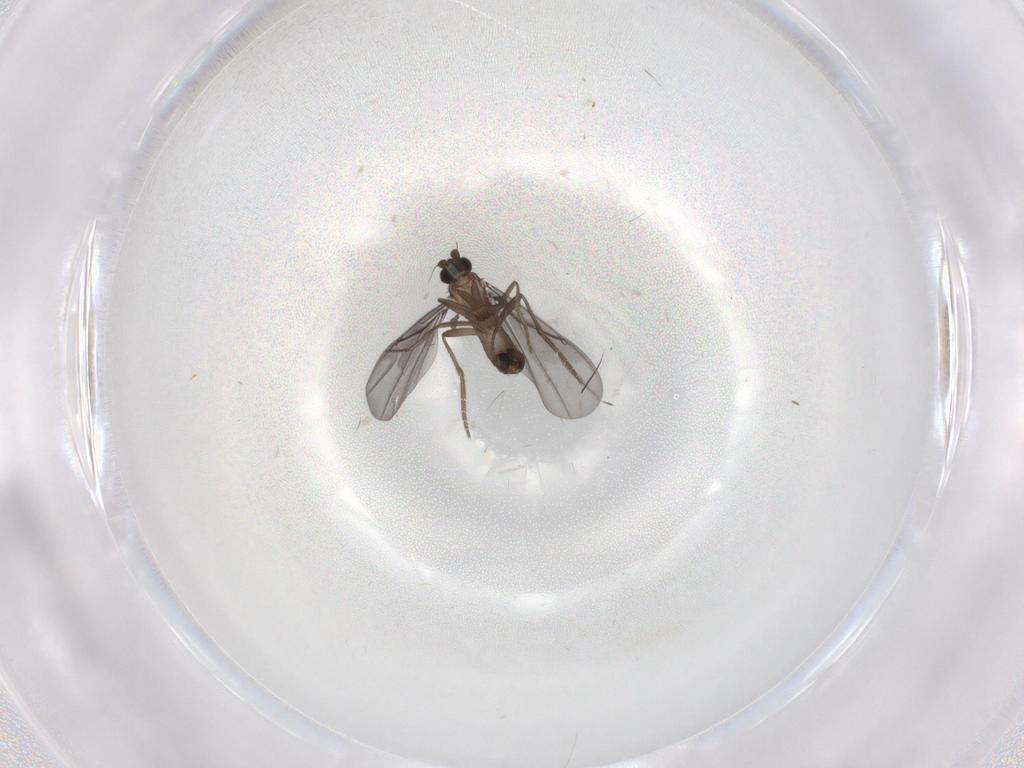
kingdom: Animalia
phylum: Arthropoda
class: Insecta
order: Diptera
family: Phoridae
